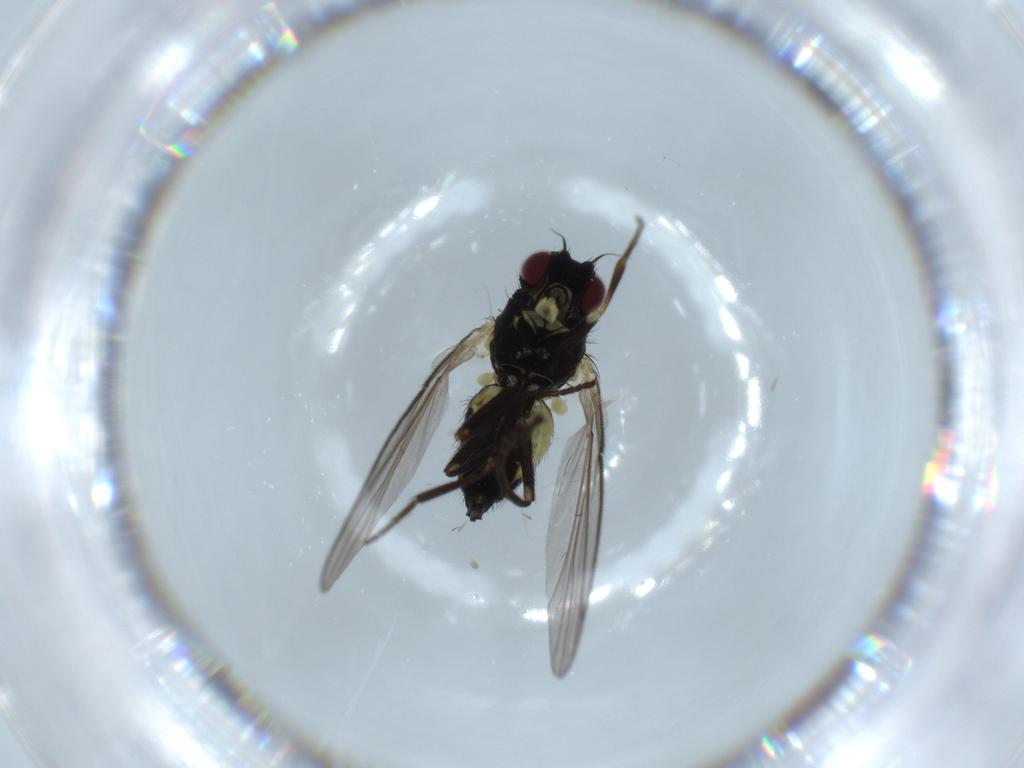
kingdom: Animalia
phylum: Arthropoda
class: Insecta
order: Diptera
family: Agromyzidae
